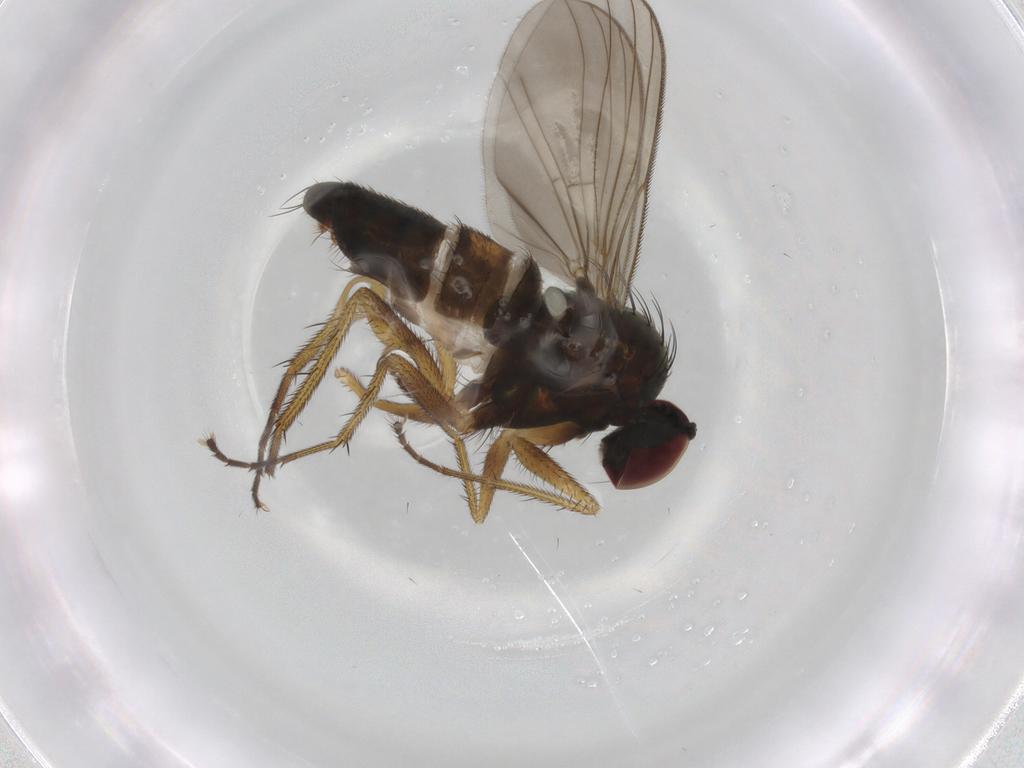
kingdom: Animalia
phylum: Arthropoda
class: Insecta
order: Diptera
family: Dolichopodidae
